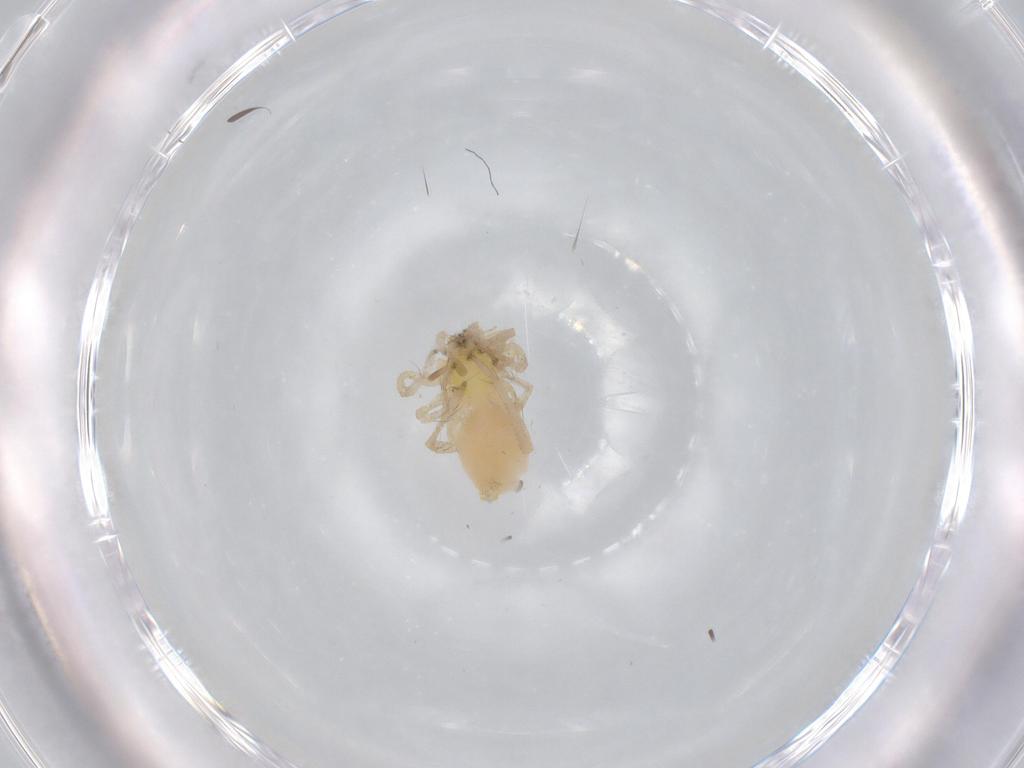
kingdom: Animalia
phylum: Arthropoda
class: Arachnida
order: Araneae
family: Anyphaenidae
